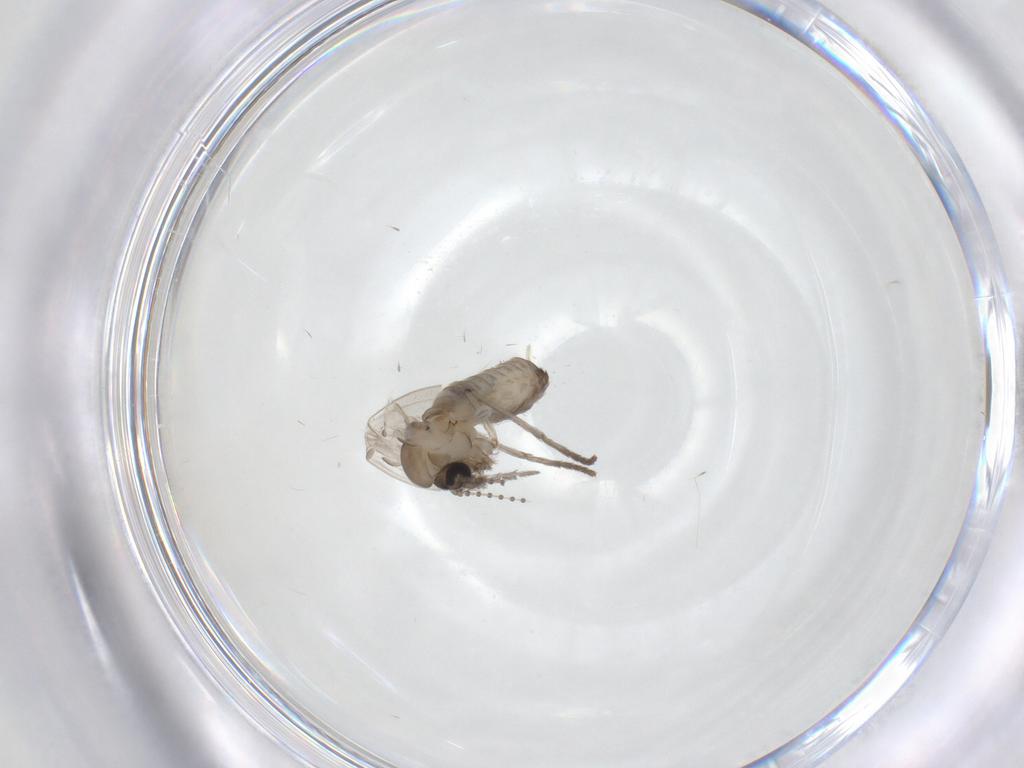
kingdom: Animalia
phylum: Arthropoda
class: Insecta
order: Diptera
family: Psychodidae
